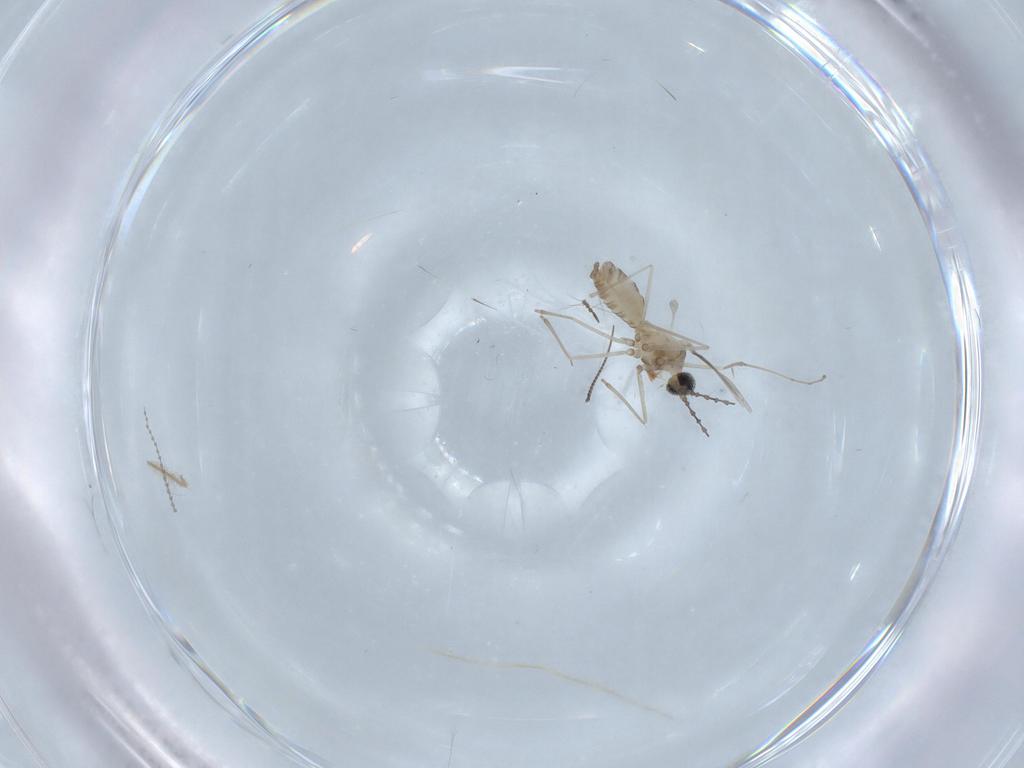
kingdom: Animalia
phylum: Arthropoda
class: Insecta
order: Diptera
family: Cecidomyiidae
